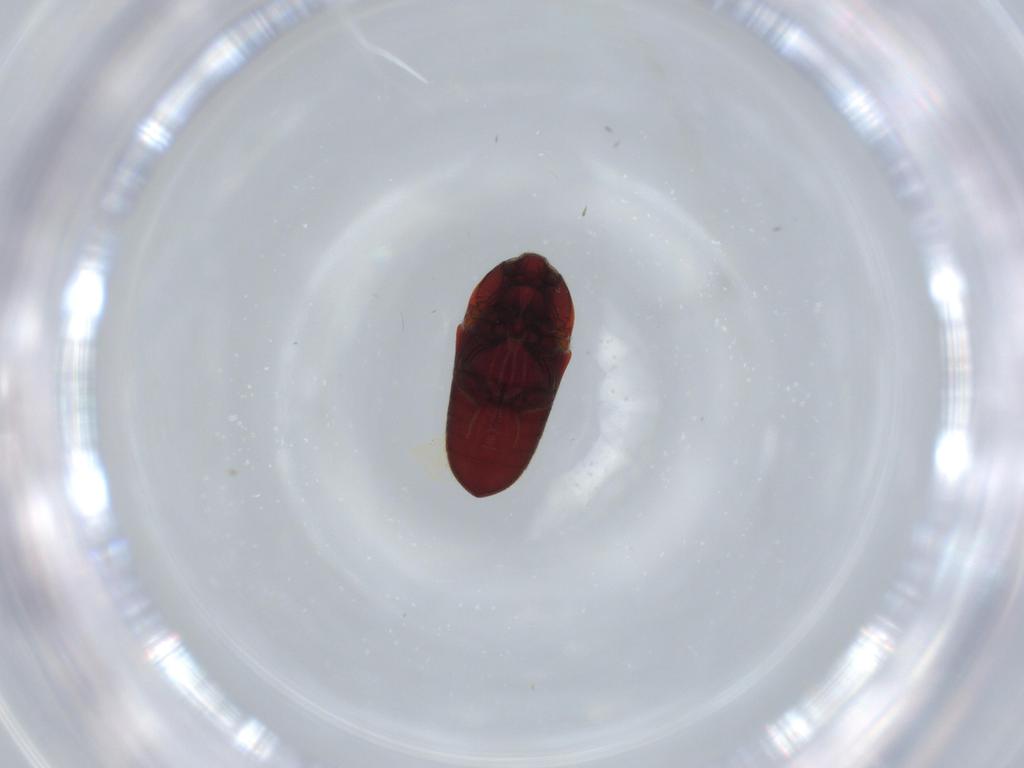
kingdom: Animalia
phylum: Arthropoda
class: Insecta
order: Coleoptera
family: Throscidae
